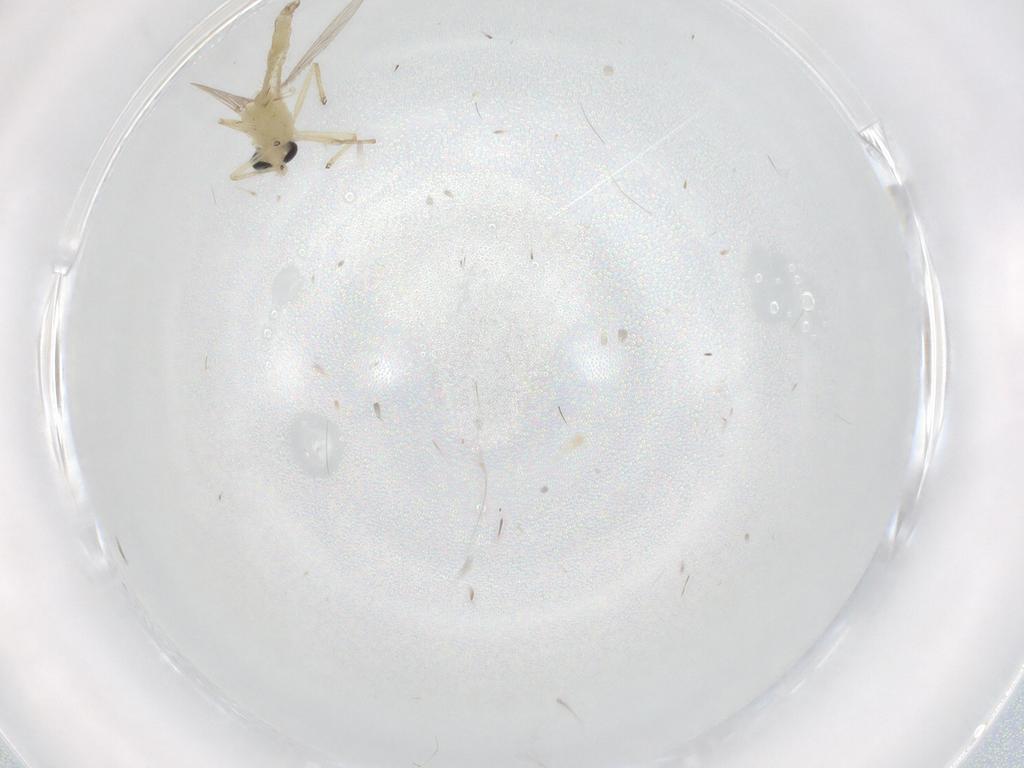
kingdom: Animalia
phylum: Arthropoda
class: Insecta
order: Diptera
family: Chironomidae
